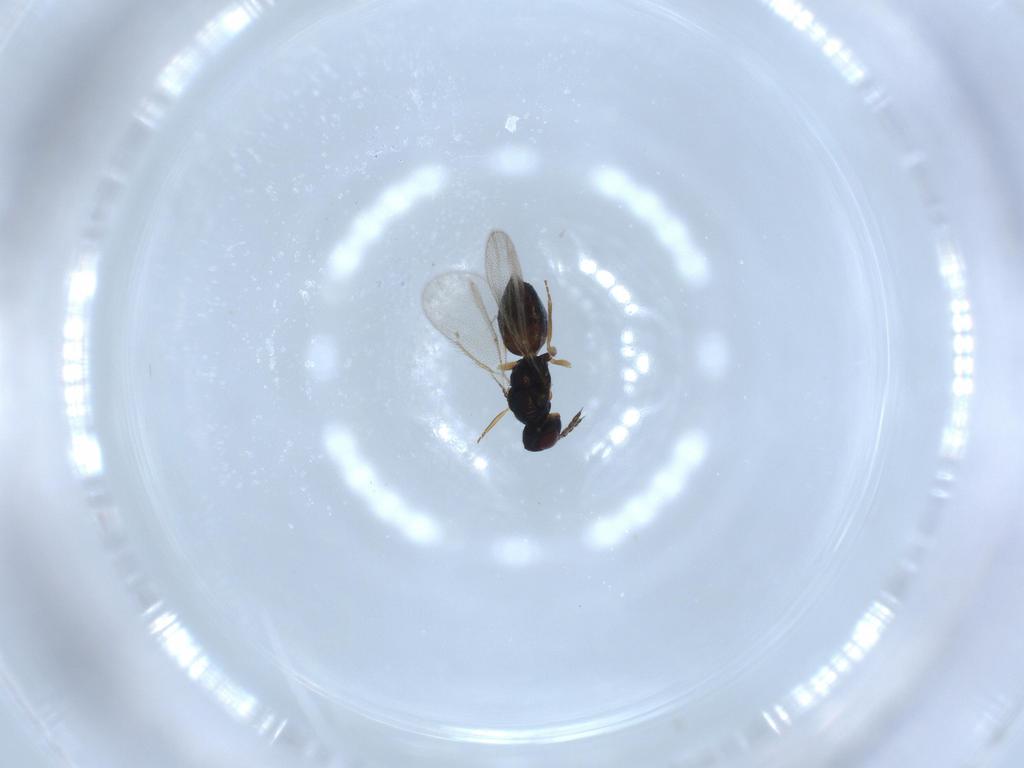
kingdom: Animalia
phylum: Arthropoda
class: Insecta
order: Hymenoptera
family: Eulophidae
